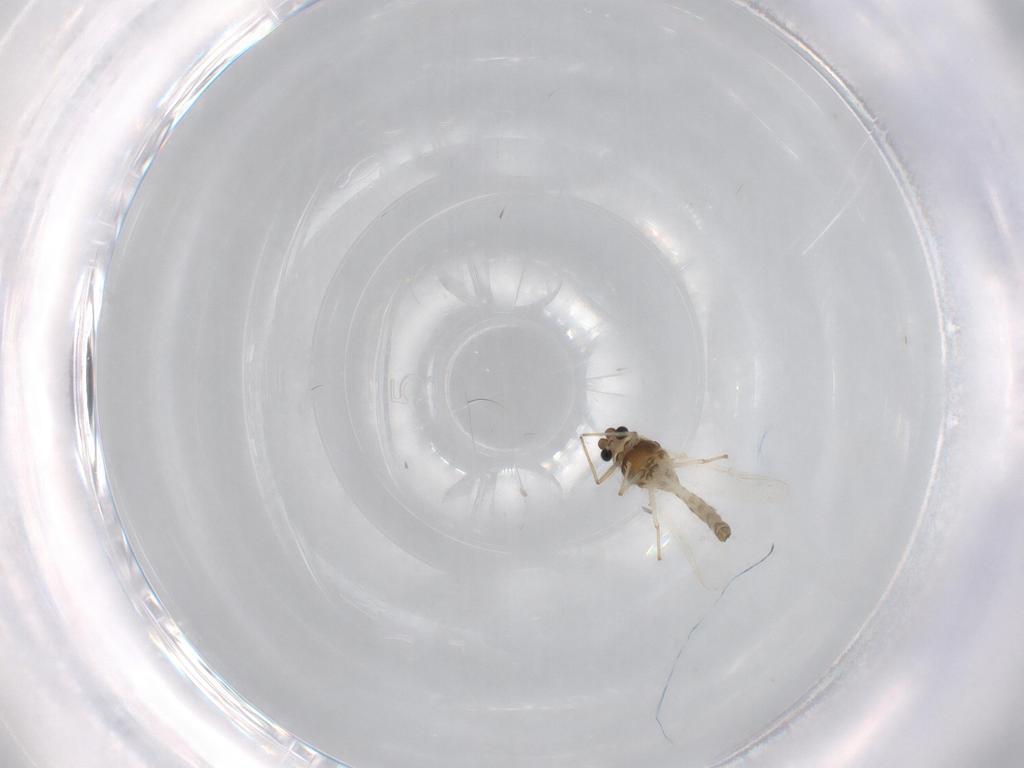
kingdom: Animalia
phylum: Arthropoda
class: Insecta
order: Diptera
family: Chironomidae
